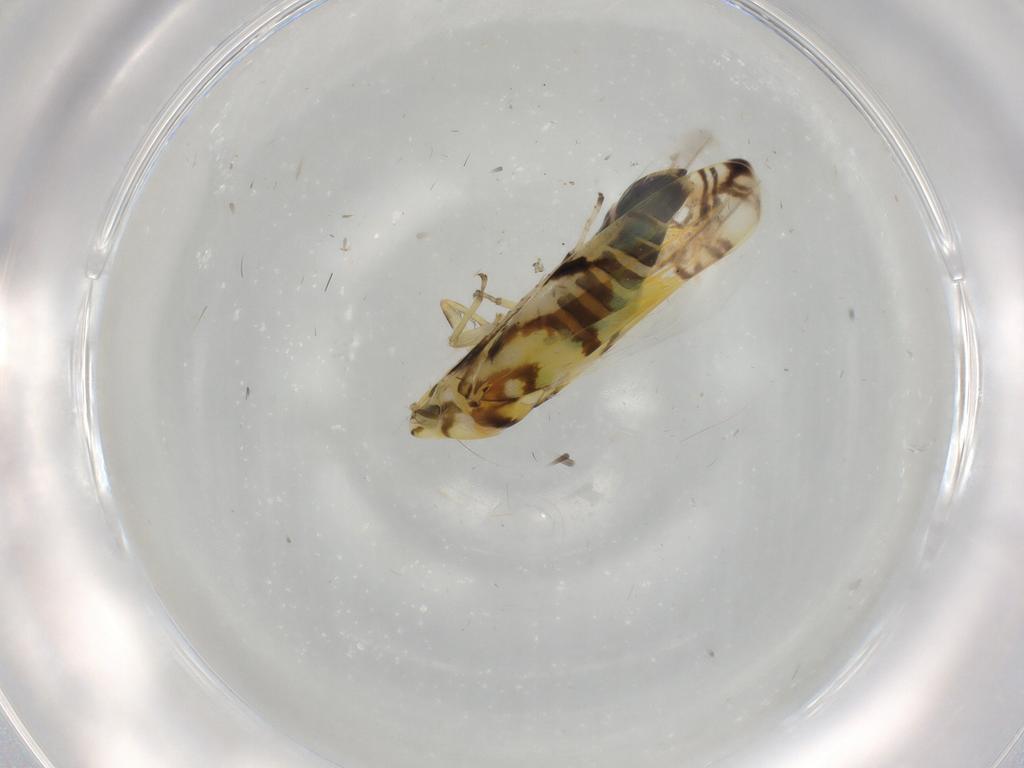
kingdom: Animalia
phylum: Arthropoda
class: Insecta
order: Hemiptera
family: Cicadellidae
